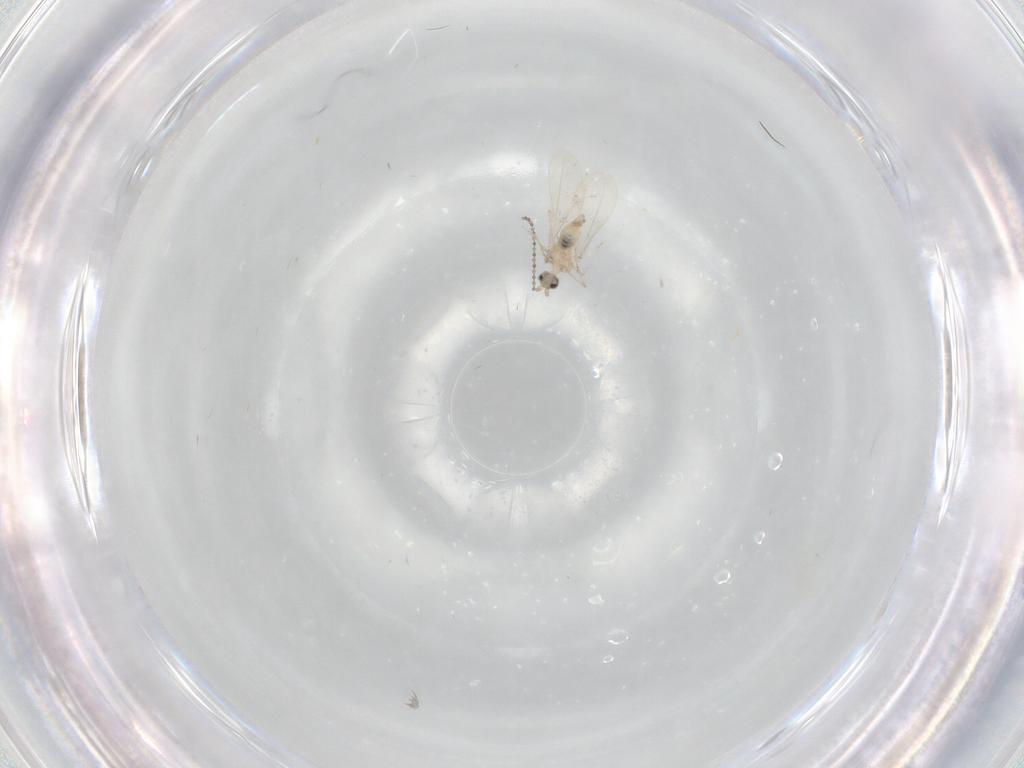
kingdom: Animalia
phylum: Arthropoda
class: Insecta
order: Diptera
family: Cecidomyiidae
